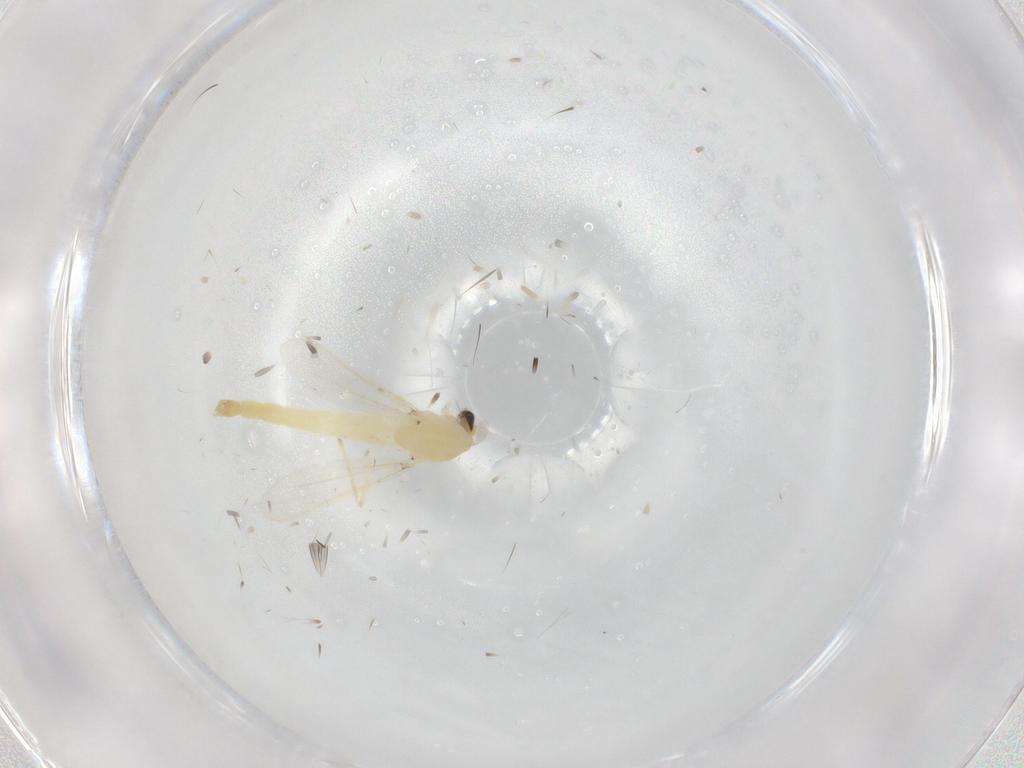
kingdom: Animalia
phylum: Arthropoda
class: Insecta
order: Diptera
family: Chironomidae
